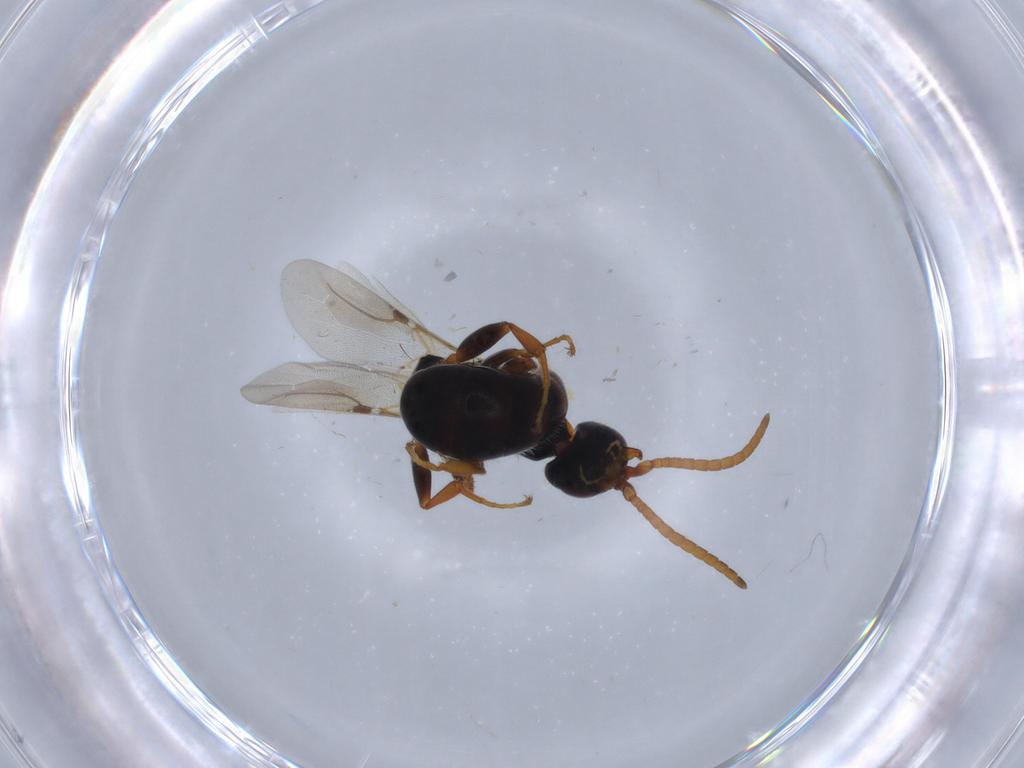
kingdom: Animalia
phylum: Arthropoda
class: Insecta
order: Hymenoptera
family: Bethylidae
